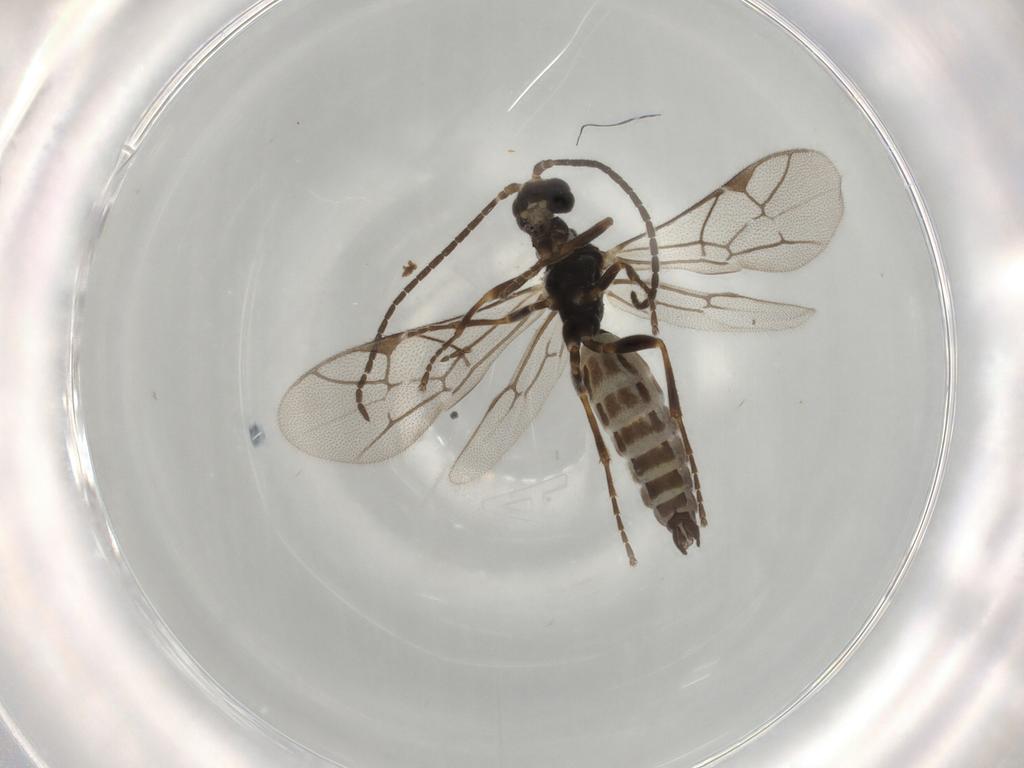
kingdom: Animalia
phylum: Arthropoda
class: Insecta
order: Hymenoptera
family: Ichneumonidae
